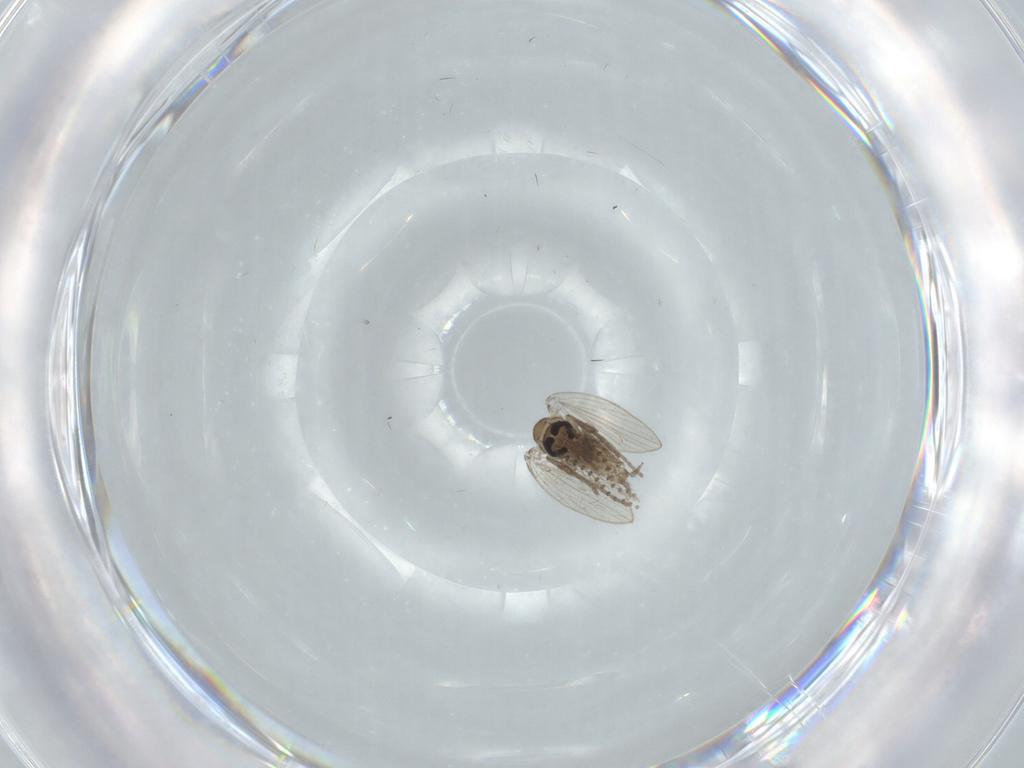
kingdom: Animalia
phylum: Arthropoda
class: Insecta
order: Diptera
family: Psychodidae
